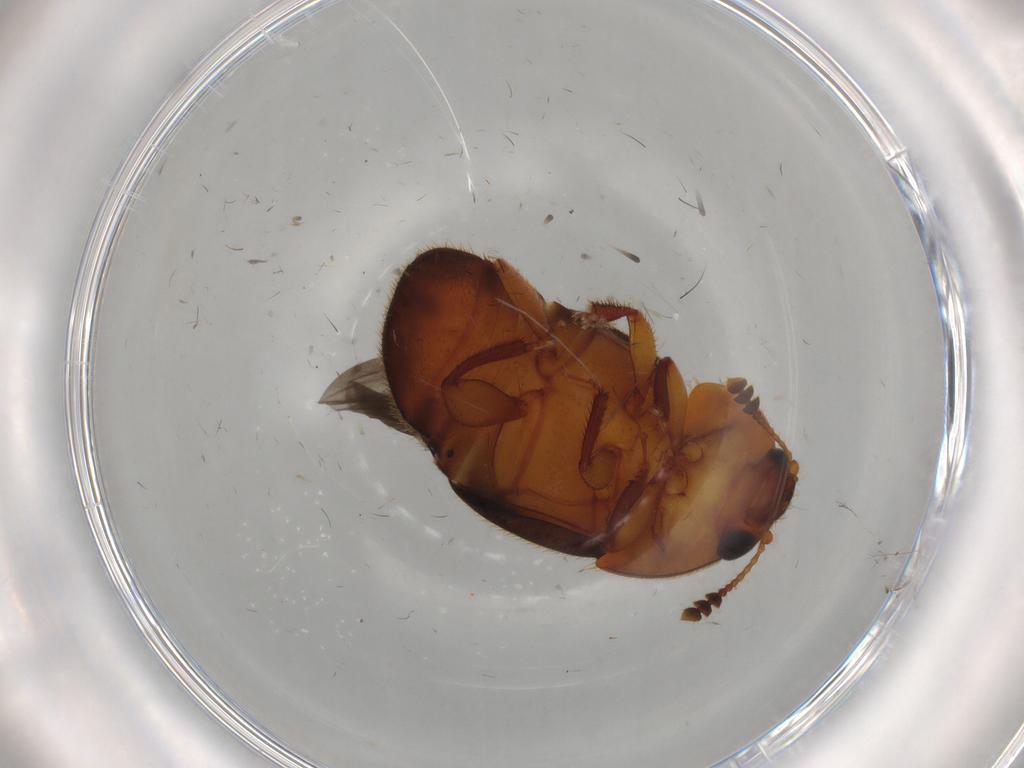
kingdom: Animalia
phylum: Arthropoda
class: Insecta
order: Coleoptera
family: Nitidulidae
